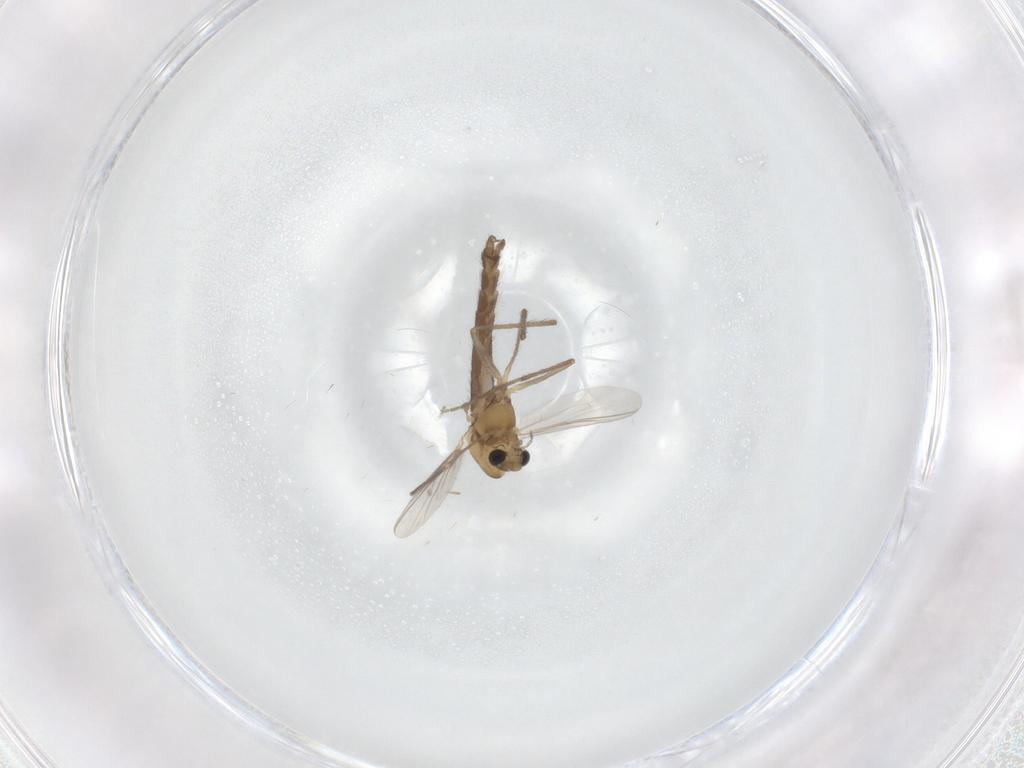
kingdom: Animalia
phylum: Arthropoda
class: Insecta
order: Diptera
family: Chironomidae
